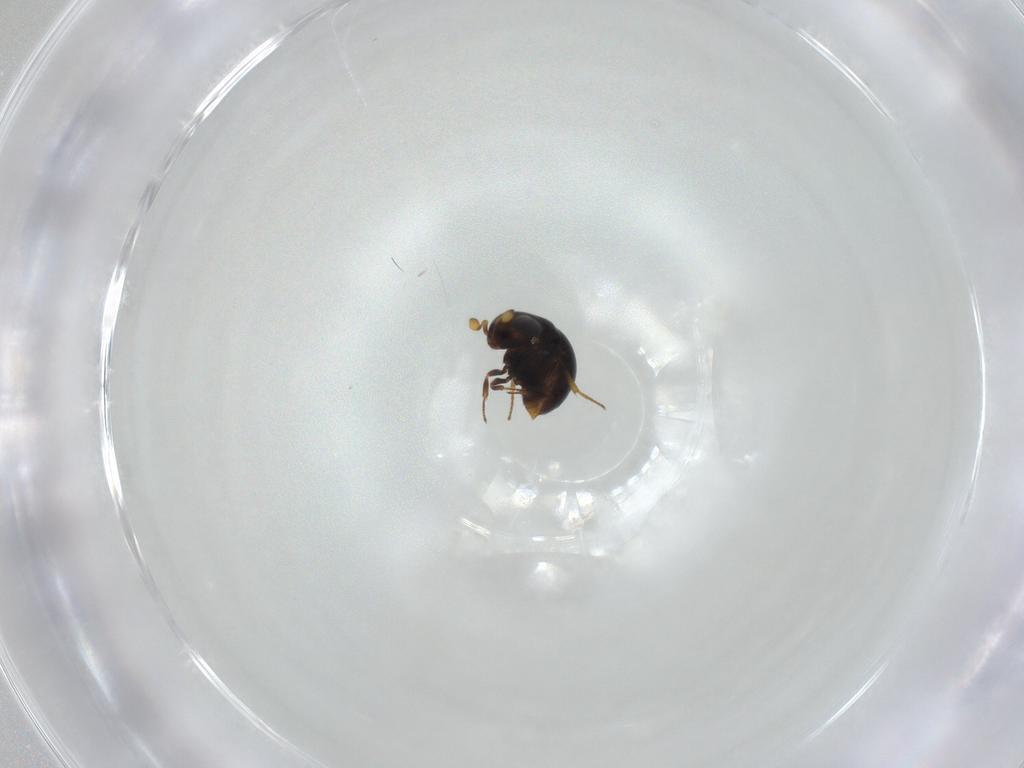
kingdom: Animalia
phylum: Arthropoda
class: Insecta
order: Hymenoptera
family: Scelionidae
